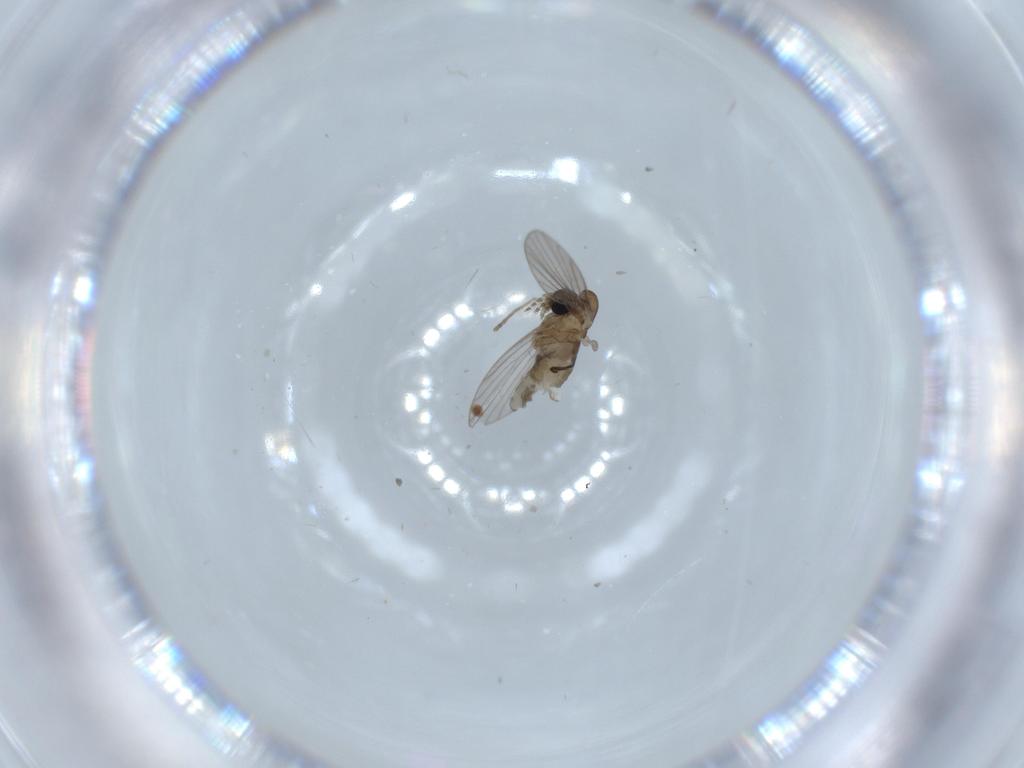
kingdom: Animalia
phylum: Arthropoda
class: Insecta
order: Diptera
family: Psychodidae
